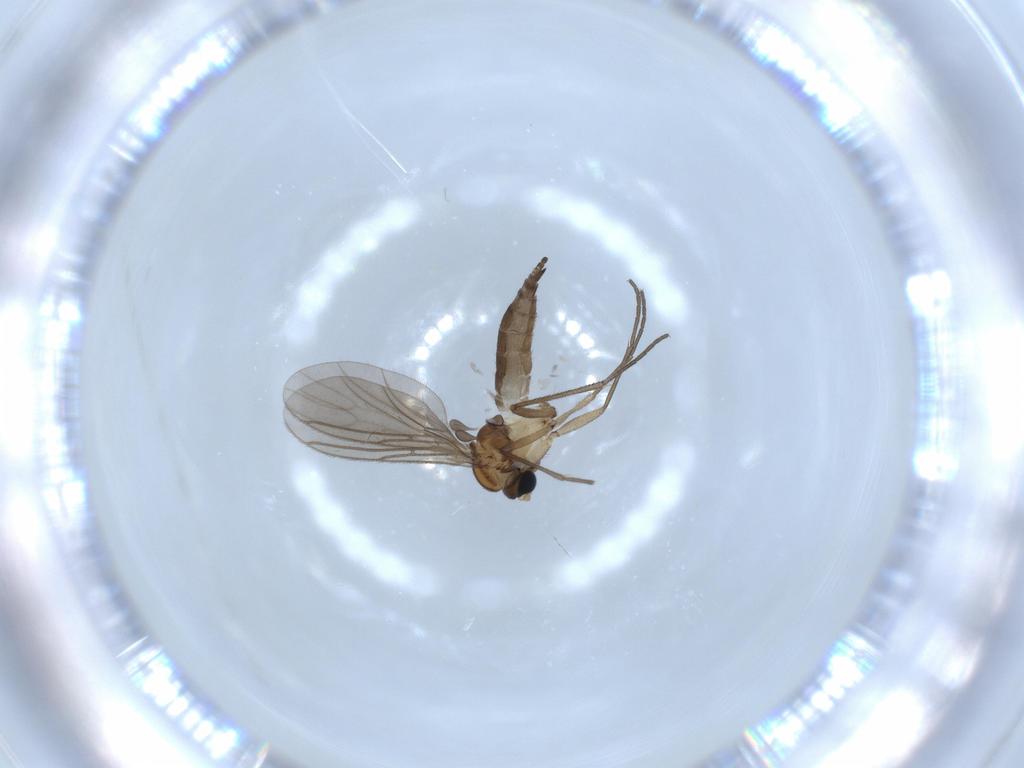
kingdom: Animalia
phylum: Arthropoda
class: Insecta
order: Diptera
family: Sciaridae
